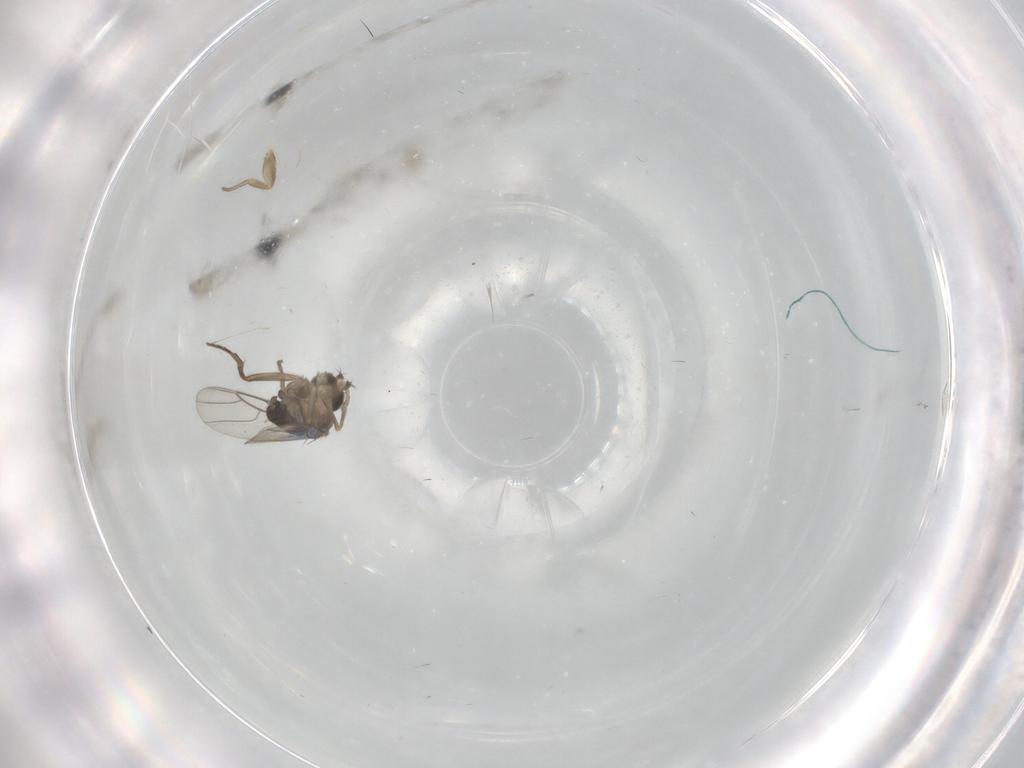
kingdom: Animalia
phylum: Arthropoda
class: Insecta
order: Diptera
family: Phoridae
